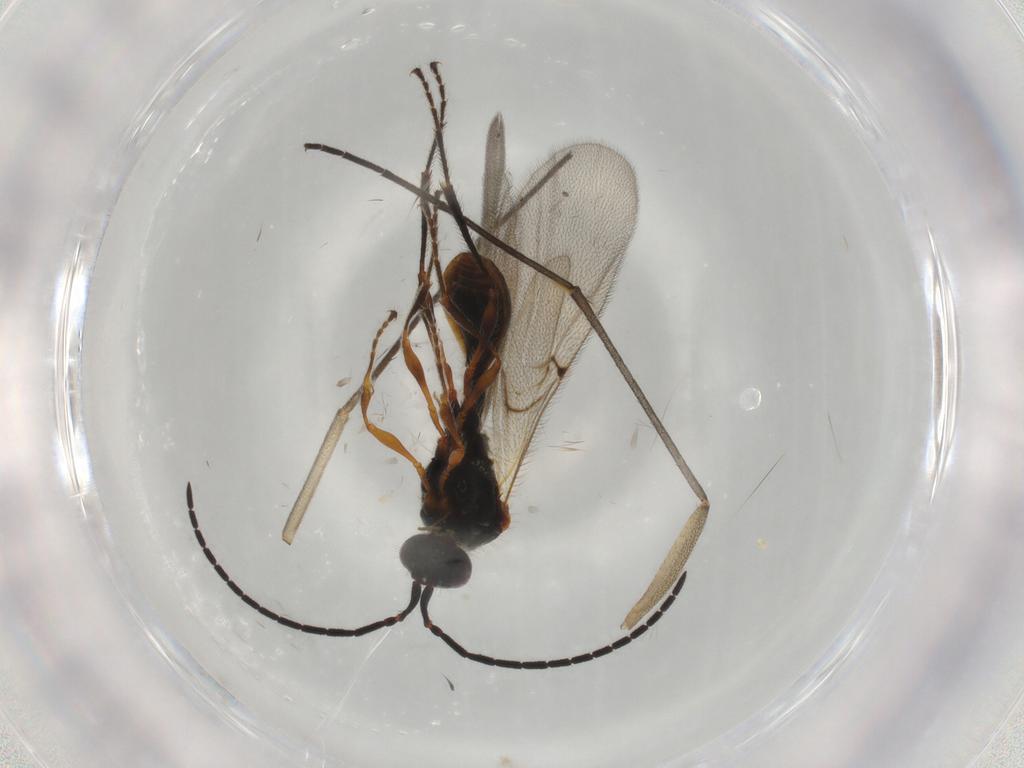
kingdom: Animalia
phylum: Arthropoda
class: Insecta
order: Hymenoptera
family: Diapriidae
